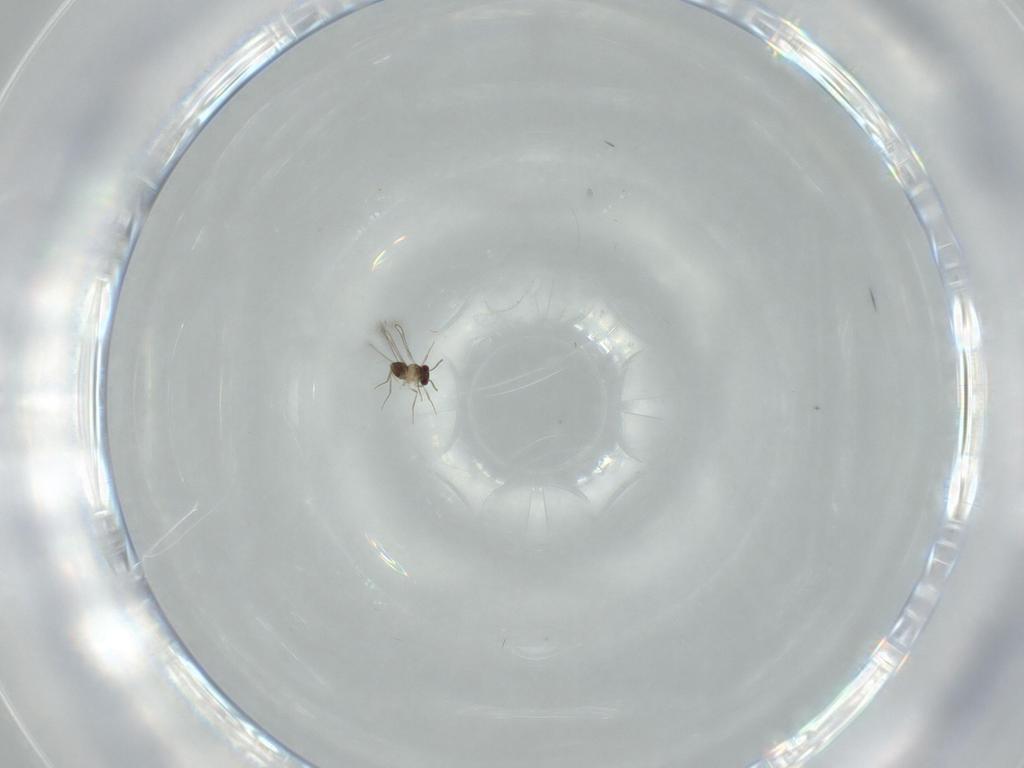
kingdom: Animalia
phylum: Arthropoda
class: Insecta
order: Hymenoptera
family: Mymaridae
